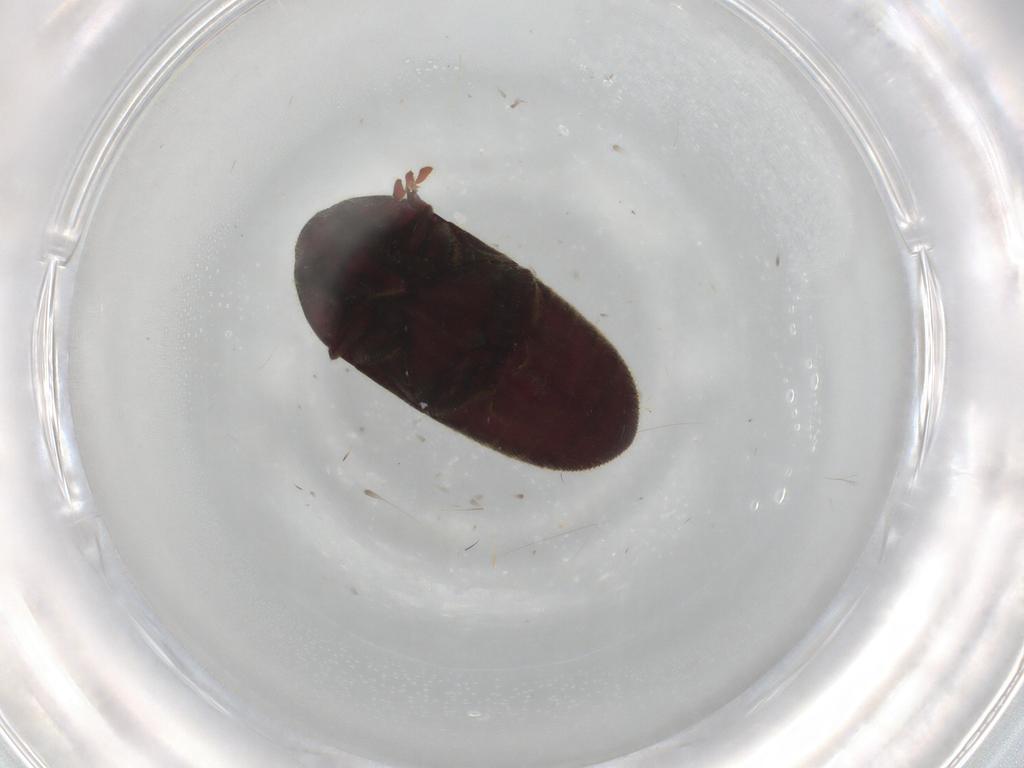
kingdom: Animalia
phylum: Arthropoda
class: Insecta
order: Coleoptera
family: Throscidae
